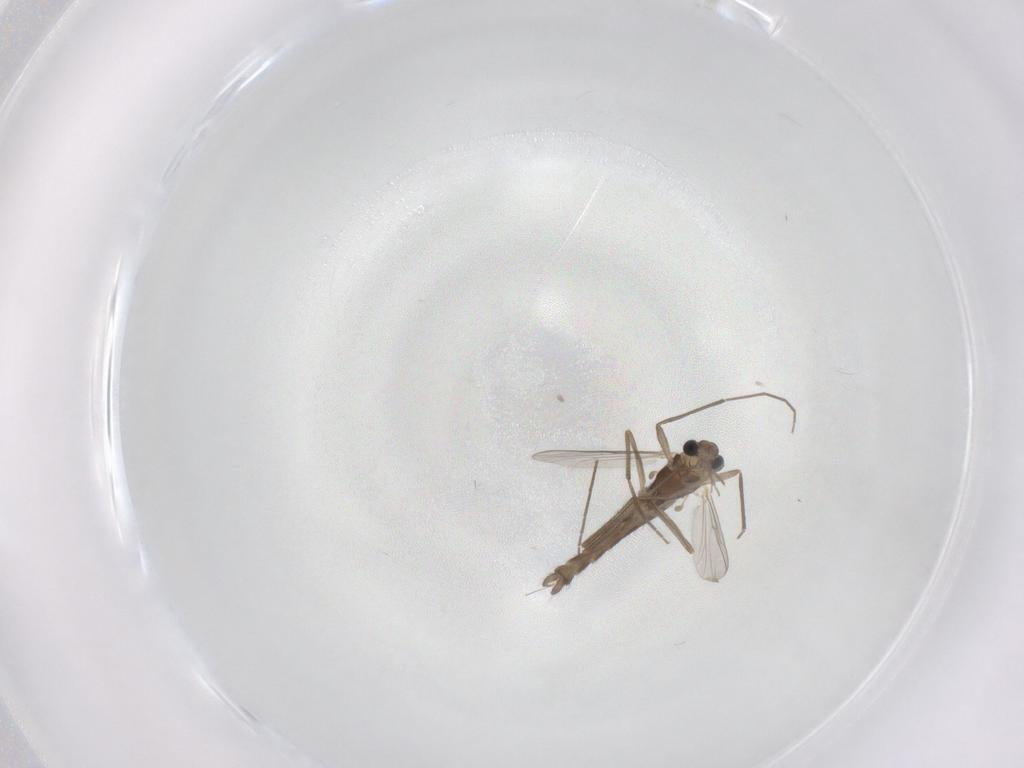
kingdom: Animalia
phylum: Arthropoda
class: Insecta
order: Diptera
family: Chironomidae
